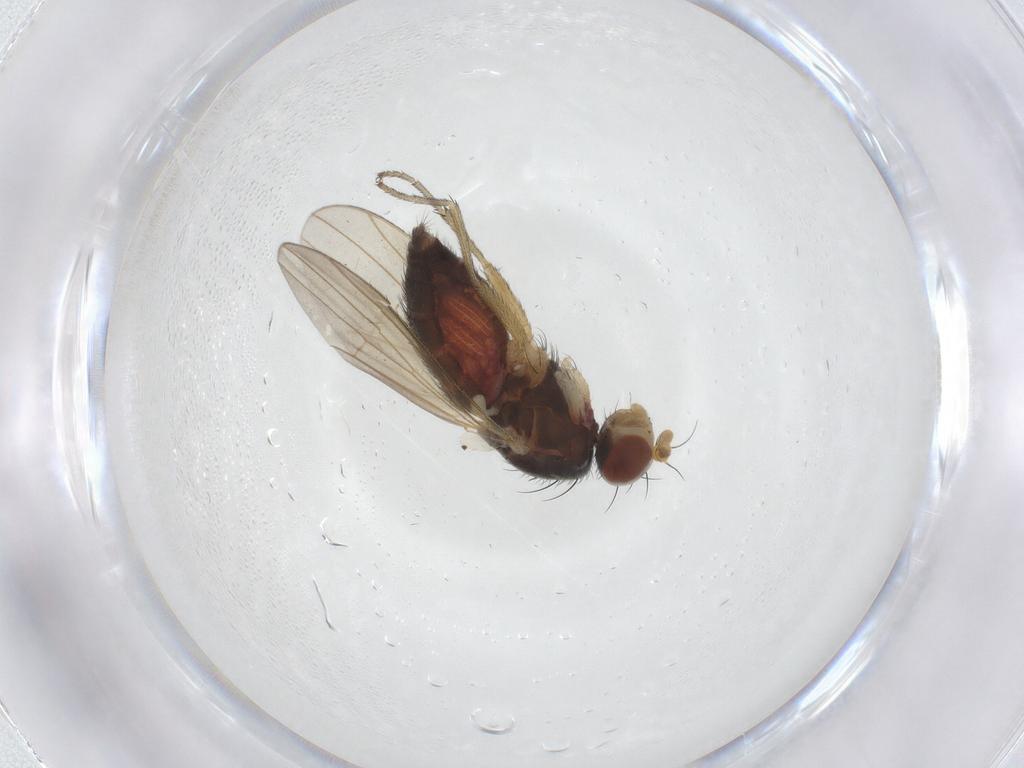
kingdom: Animalia
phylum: Arthropoda
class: Insecta
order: Diptera
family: Heleomyzidae
